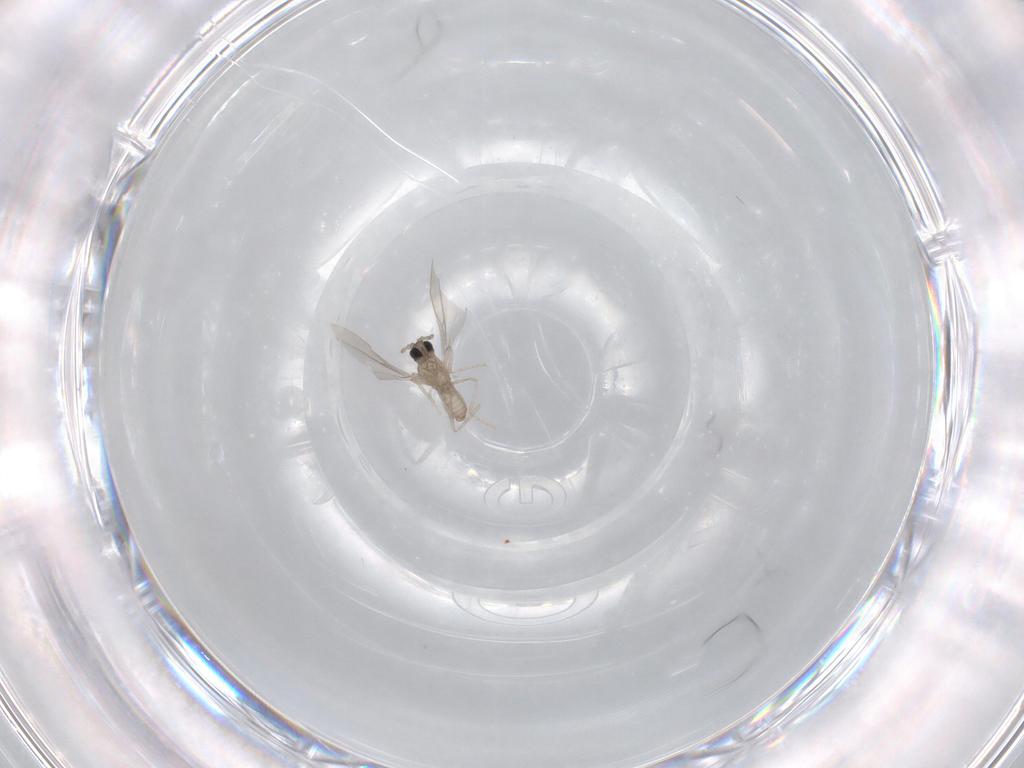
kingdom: Animalia
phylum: Arthropoda
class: Insecta
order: Diptera
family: Cecidomyiidae
